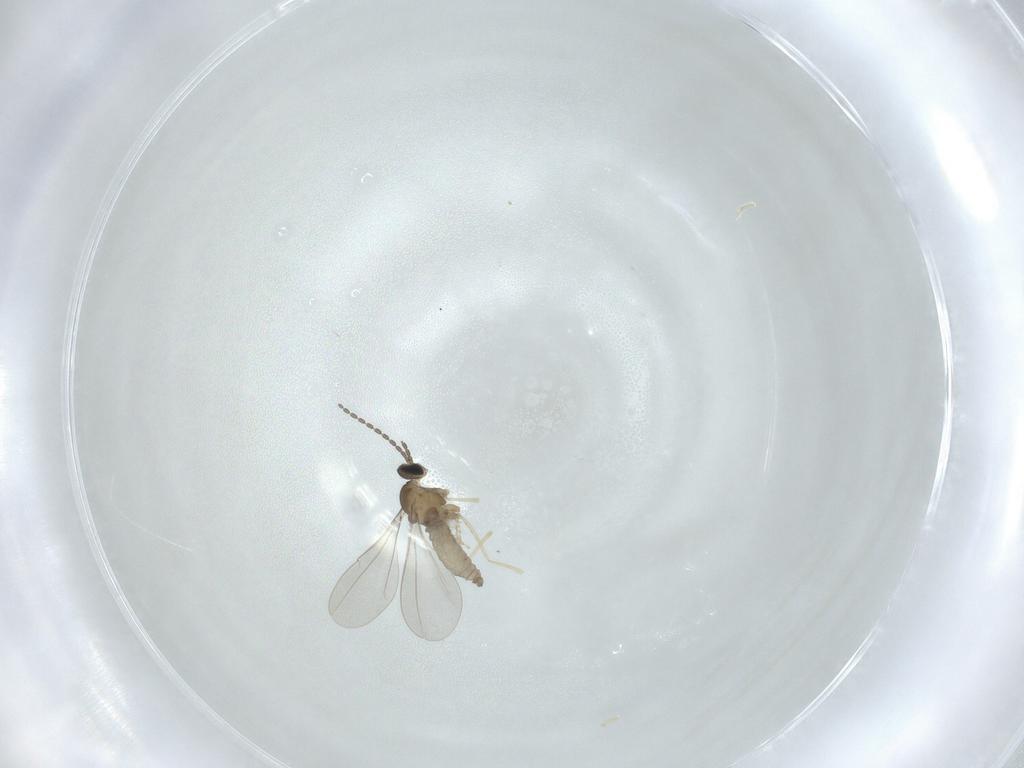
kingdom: Animalia
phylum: Arthropoda
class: Insecta
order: Diptera
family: Cecidomyiidae
